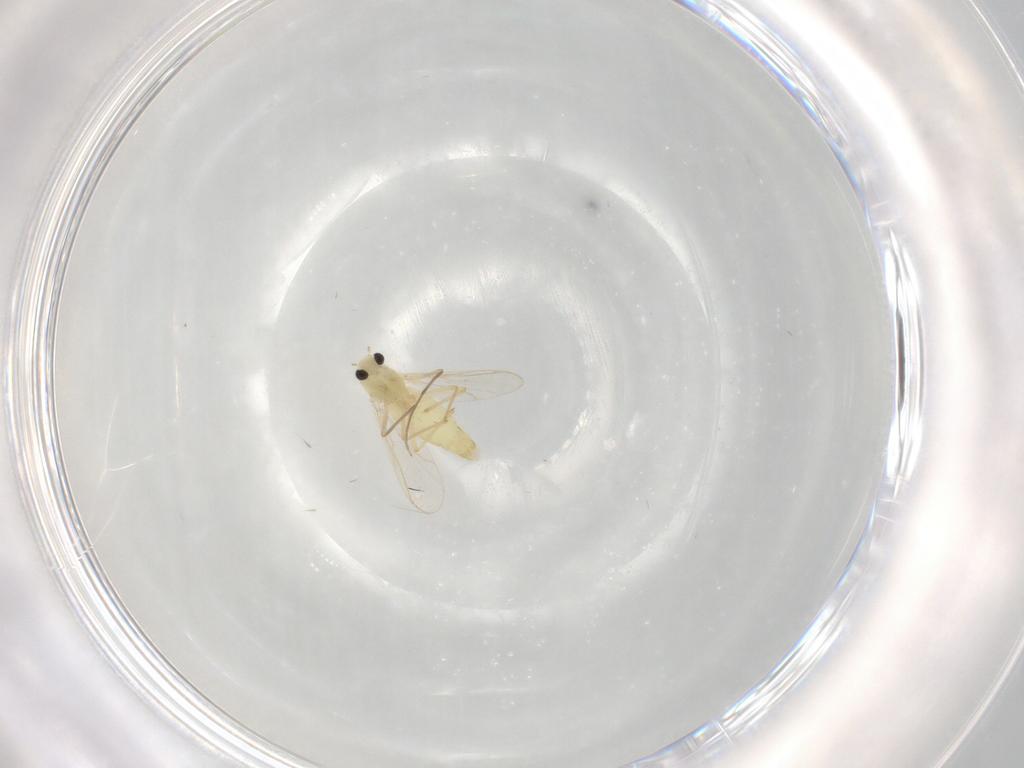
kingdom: Animalia
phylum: Arthropoda
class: Insecta
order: Diptera
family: Chironomidae
